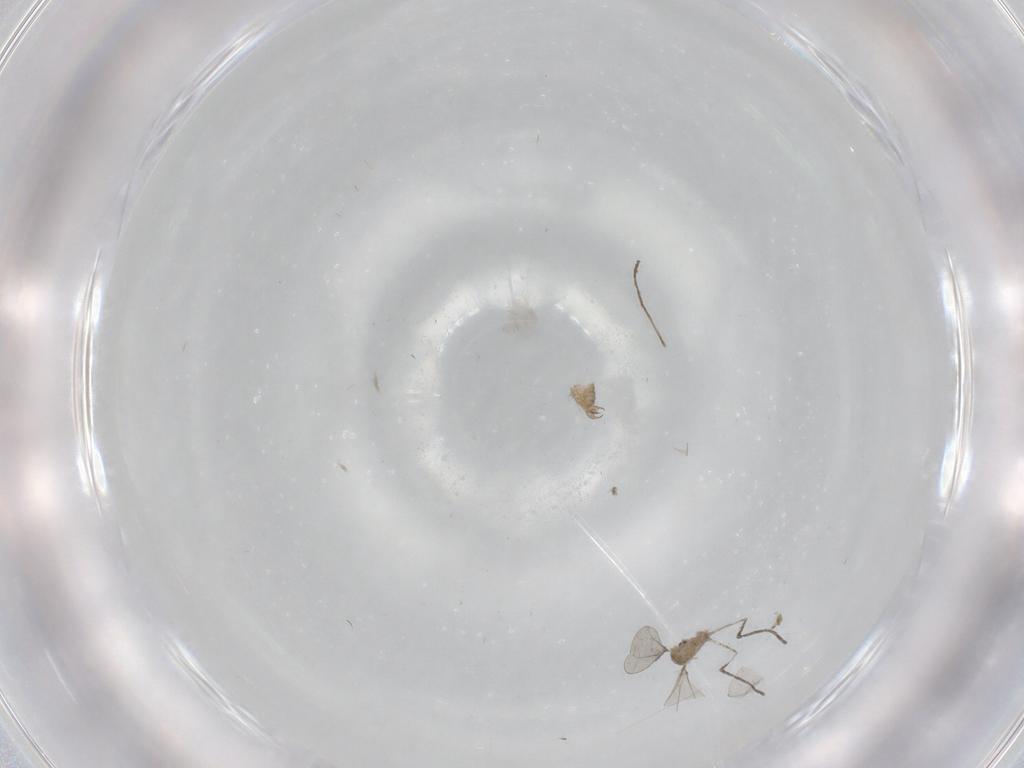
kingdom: Animalia
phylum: Arthropoda
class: Insecta
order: Diptera
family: Cecidomyiidae
